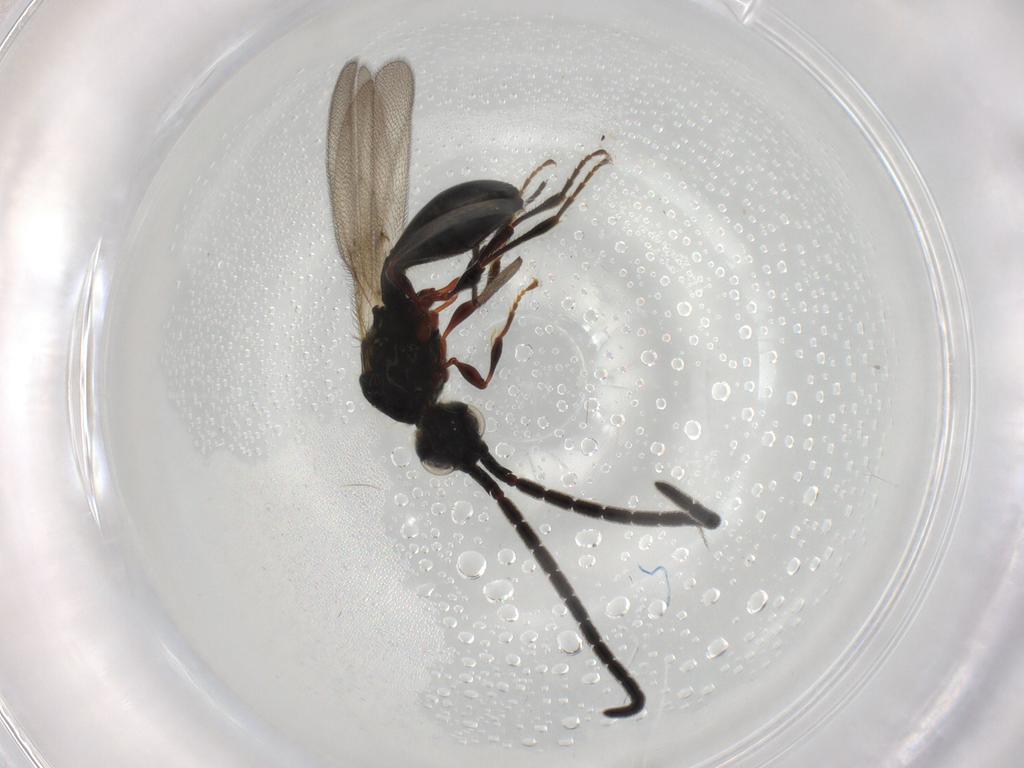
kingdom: Animalia
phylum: Arthropoda
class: Insecta
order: Hymenoptera
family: Diapriidae
